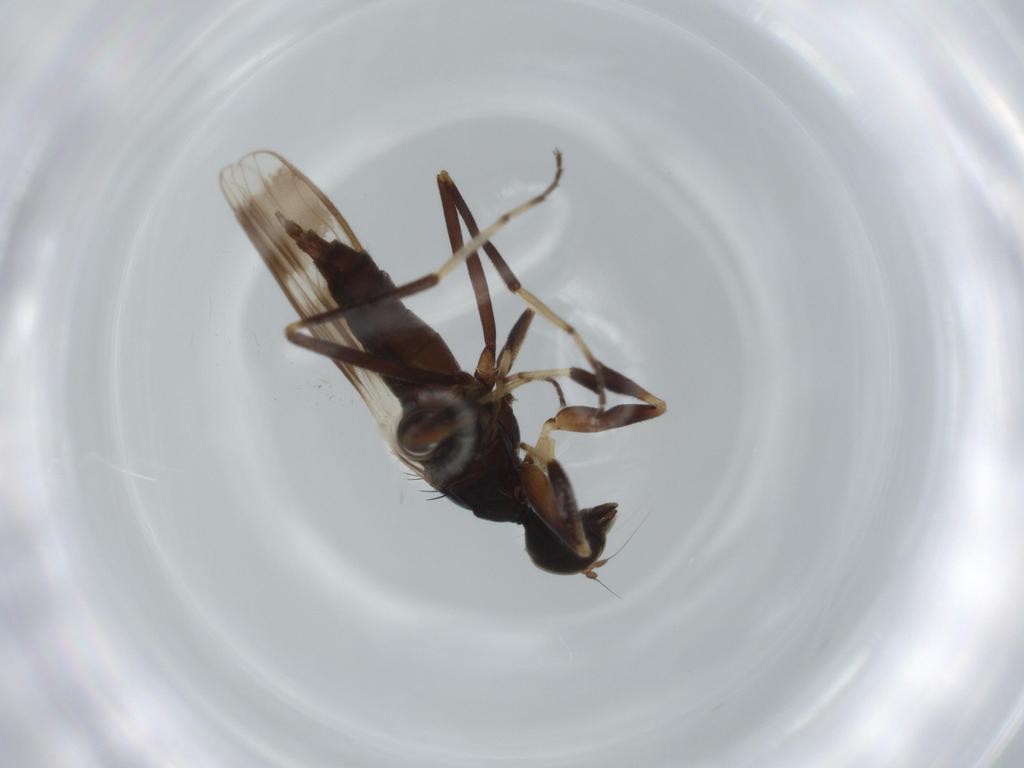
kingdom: Animalia
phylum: Arthropoda
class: Insecta
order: Diptera
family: Hybotidae
